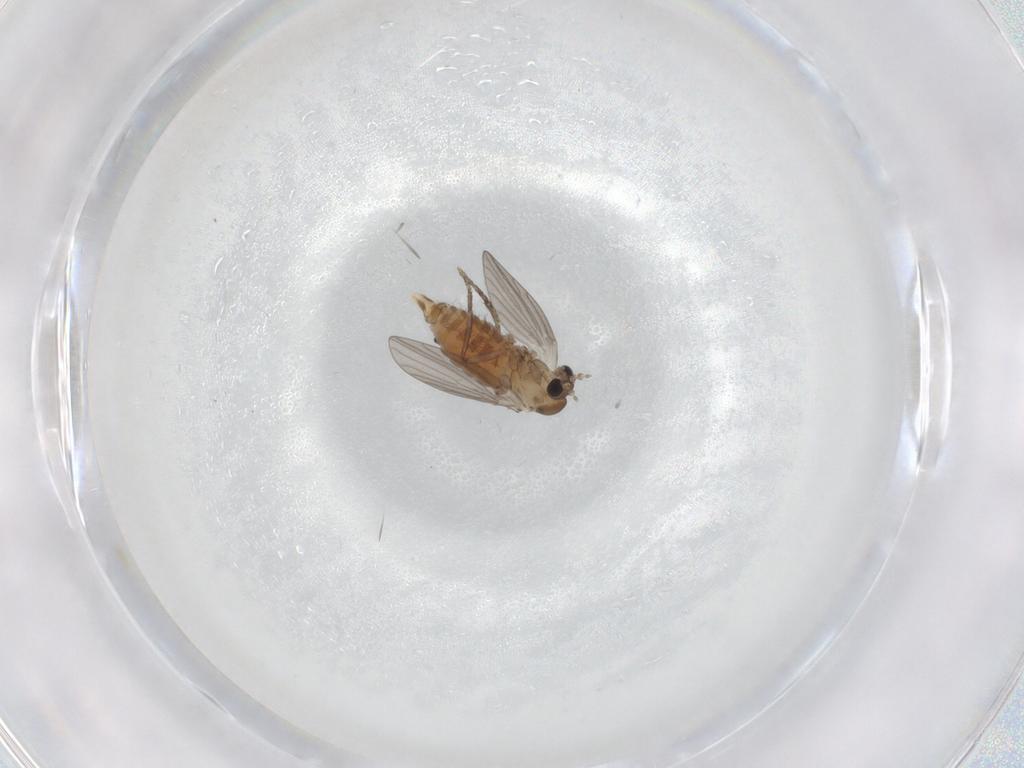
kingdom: Animalia
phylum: Arthropoda
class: Insecta
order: Diptera
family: Psychodidae
